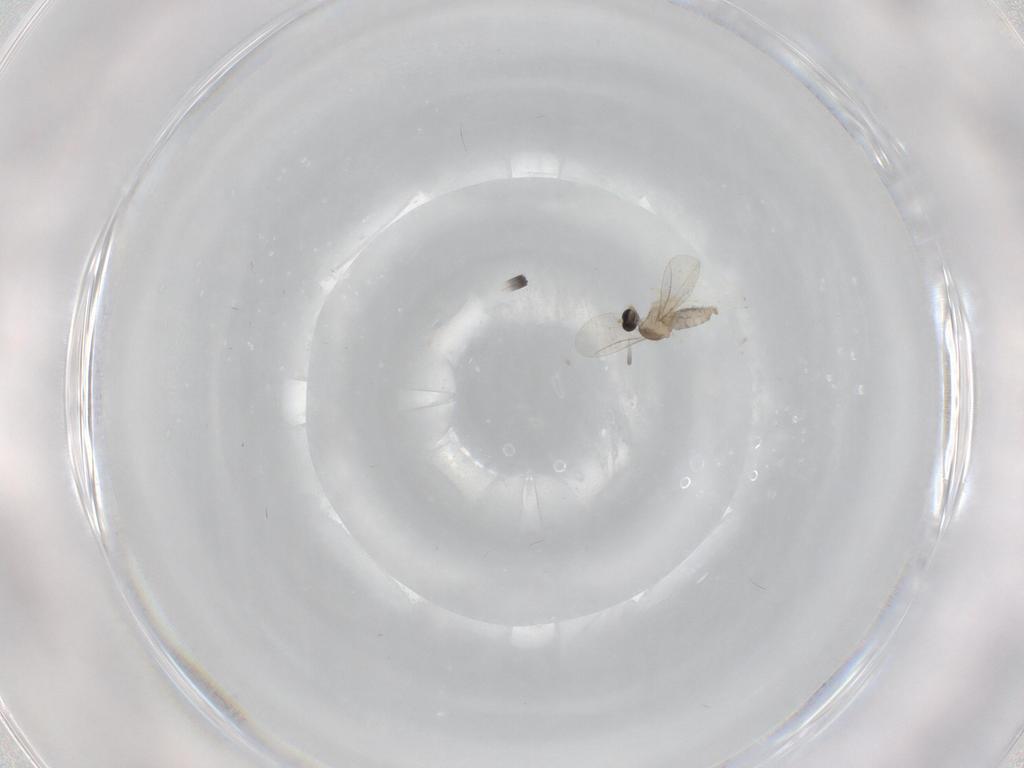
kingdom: Animalia
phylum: Arthropoda
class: Insecta
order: Diptera
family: Cecidomyiidae
